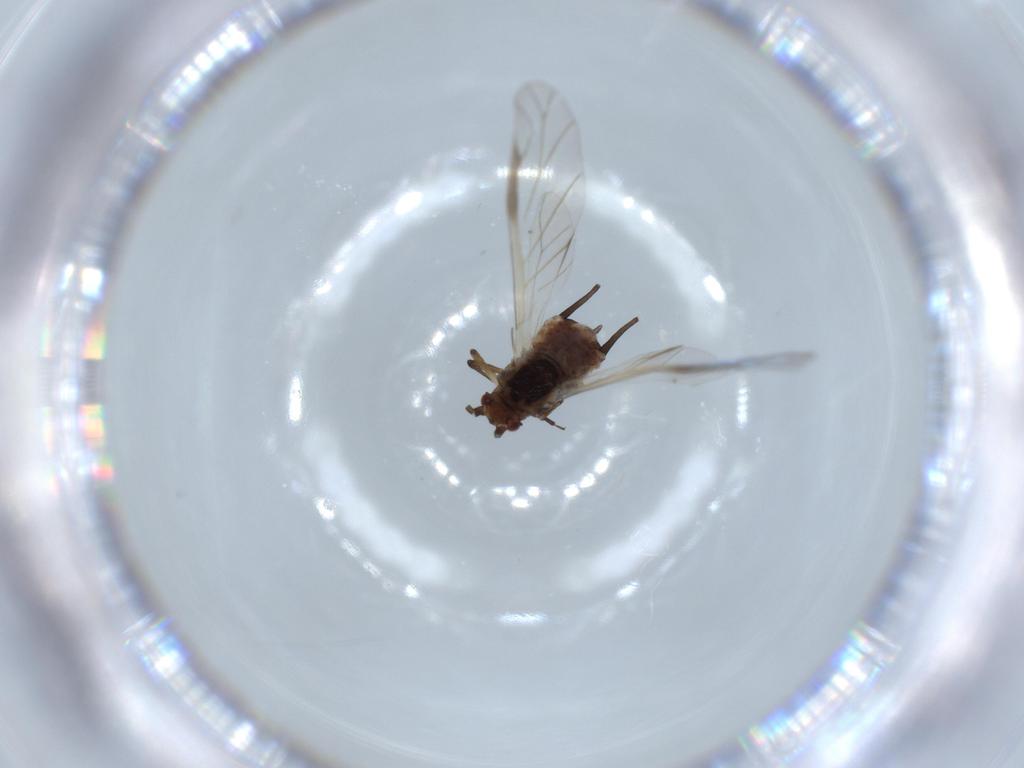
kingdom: Animalia
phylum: Arthropoda
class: Insecta
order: Hemiptera
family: Aphididae
